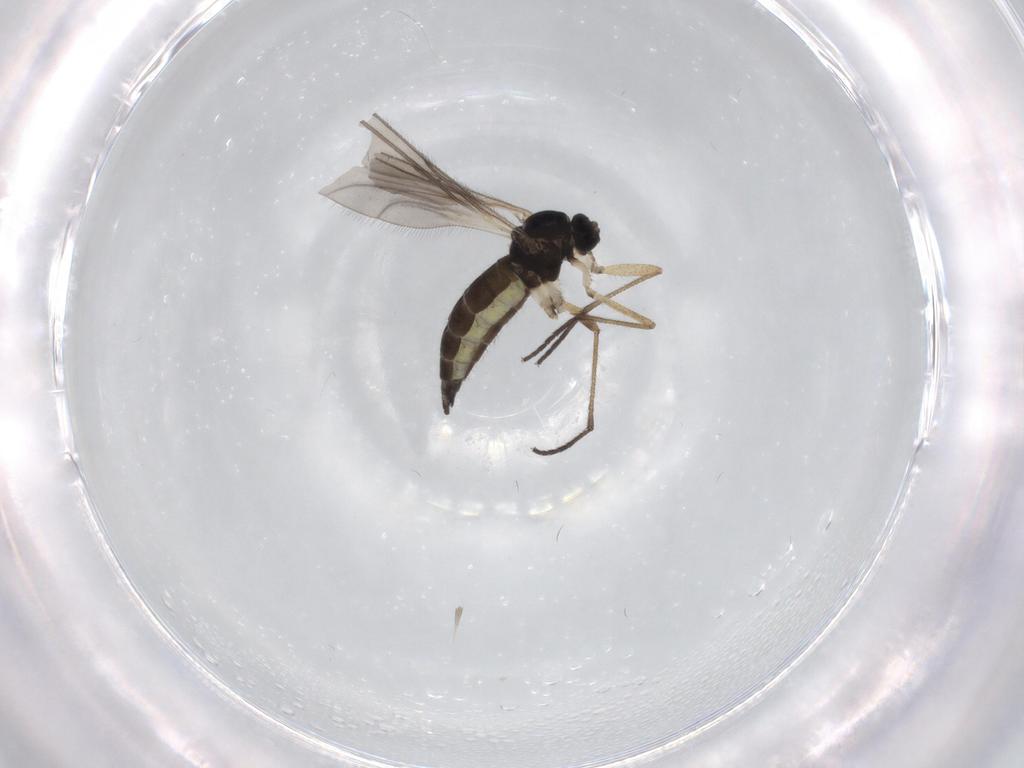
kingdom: Animalia
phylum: Arthropoda
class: Insecta
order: Diptera
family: Sciaridae
